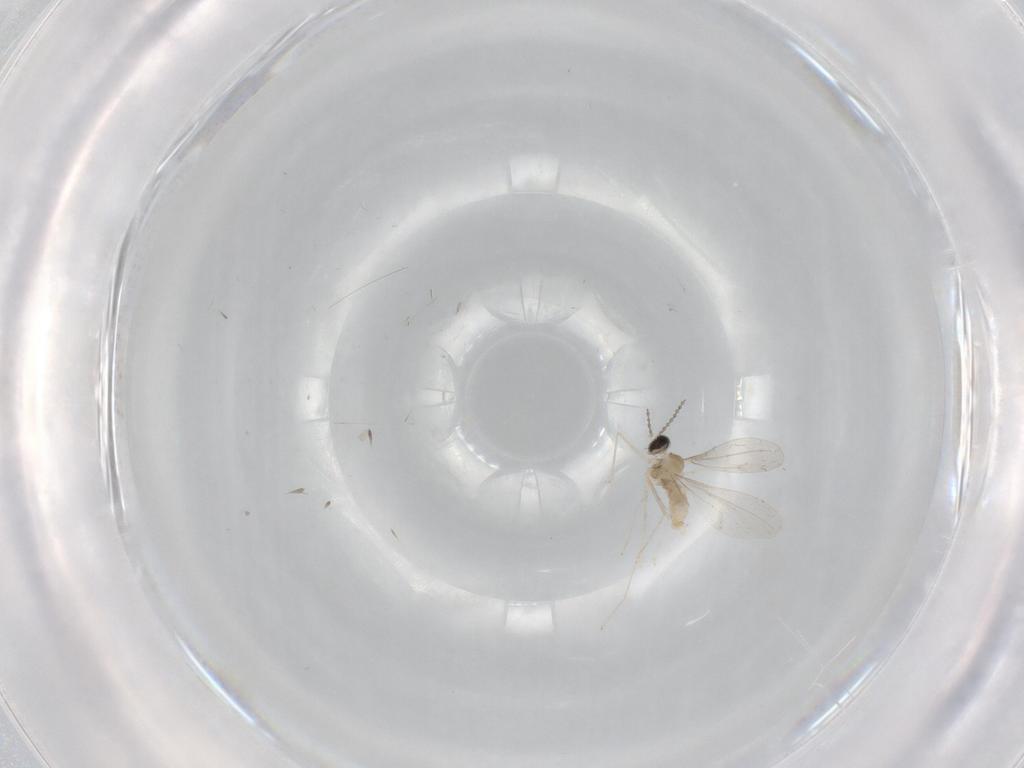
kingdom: Animalia
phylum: Arthropoda
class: Insecta
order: Diptera
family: Cecidomyiidae
